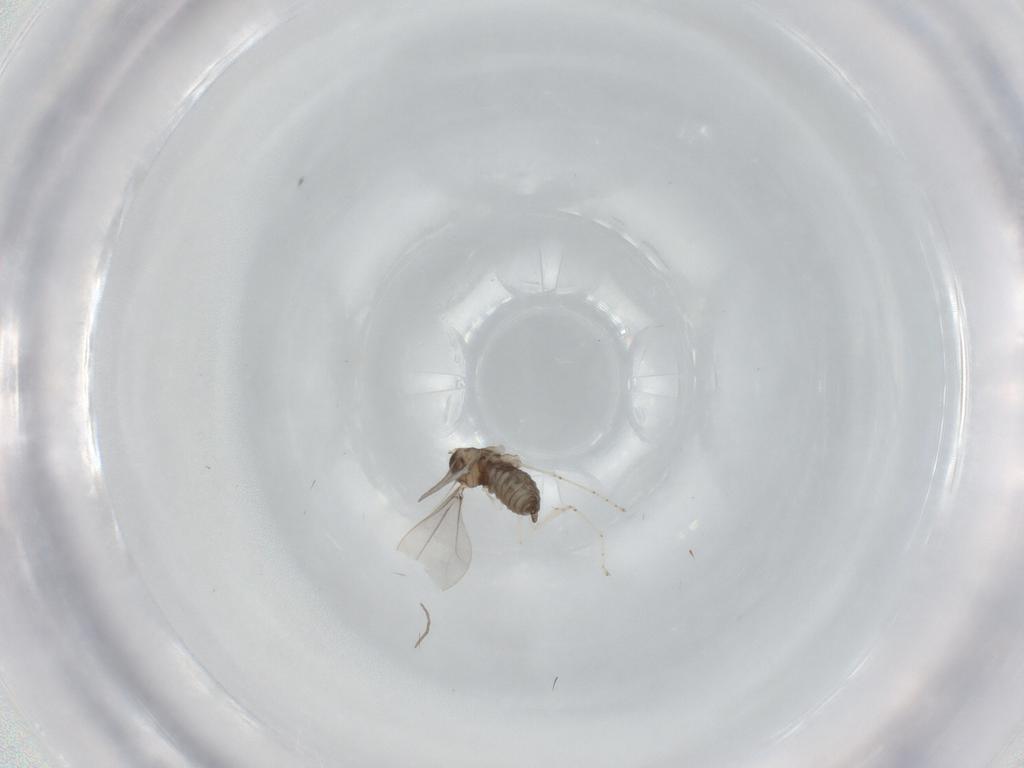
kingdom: Animalia
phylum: Arthropoda
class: Insecta
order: Diptera
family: Cecidomyiidae
